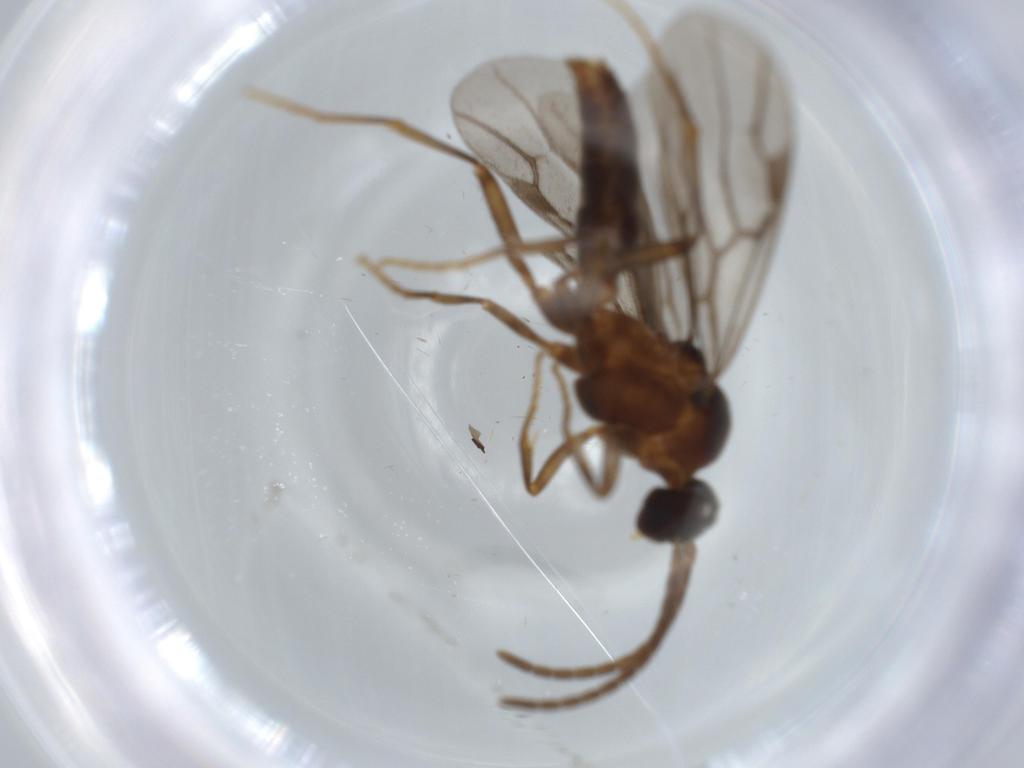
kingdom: Animalia
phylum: Arthropoda
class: Insecta
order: Hymenoptera
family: Formicidae
